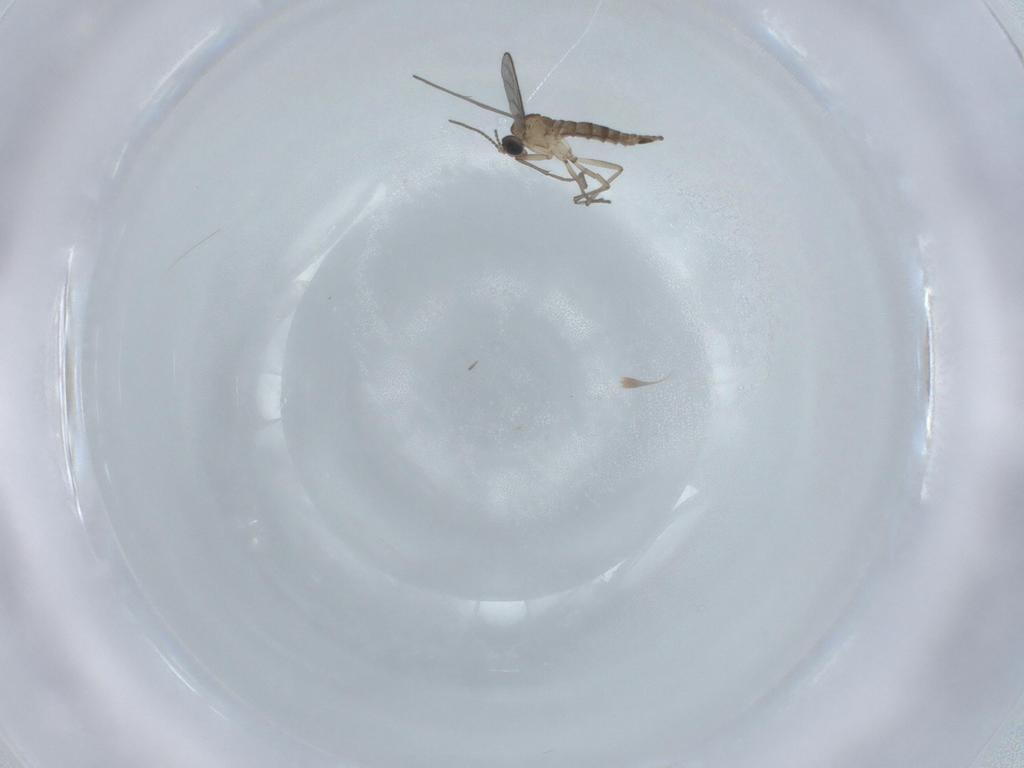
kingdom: Animalia
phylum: Arthropoda
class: Insecta
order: Diptera
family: Sciaridae
